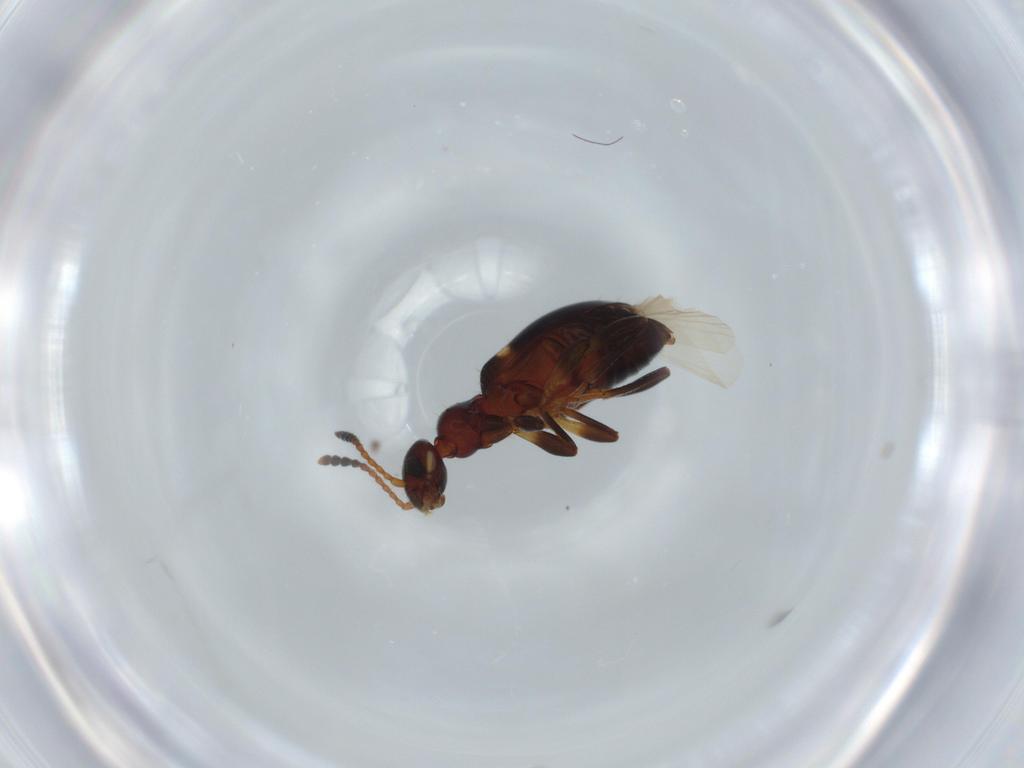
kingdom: Animalia
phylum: Arthropoda
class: Insecta
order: Coleoptera
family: Anthicidae
